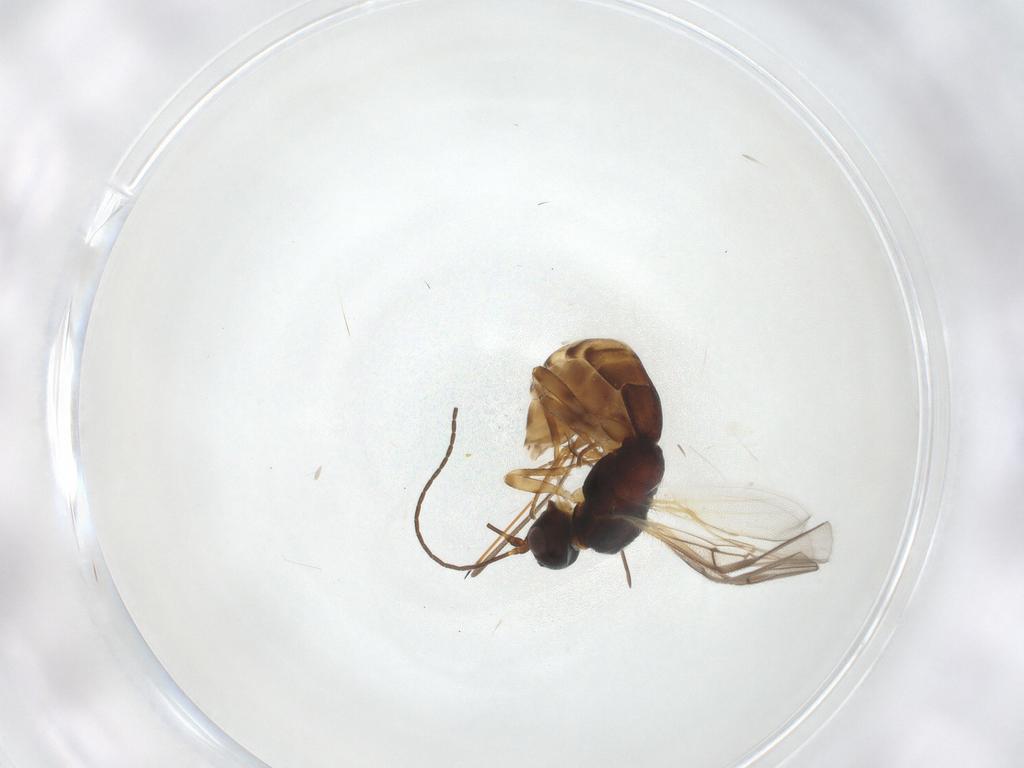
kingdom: Animalia
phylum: Arthropoda
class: Insecta
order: Hymenoptera
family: Braconidae
